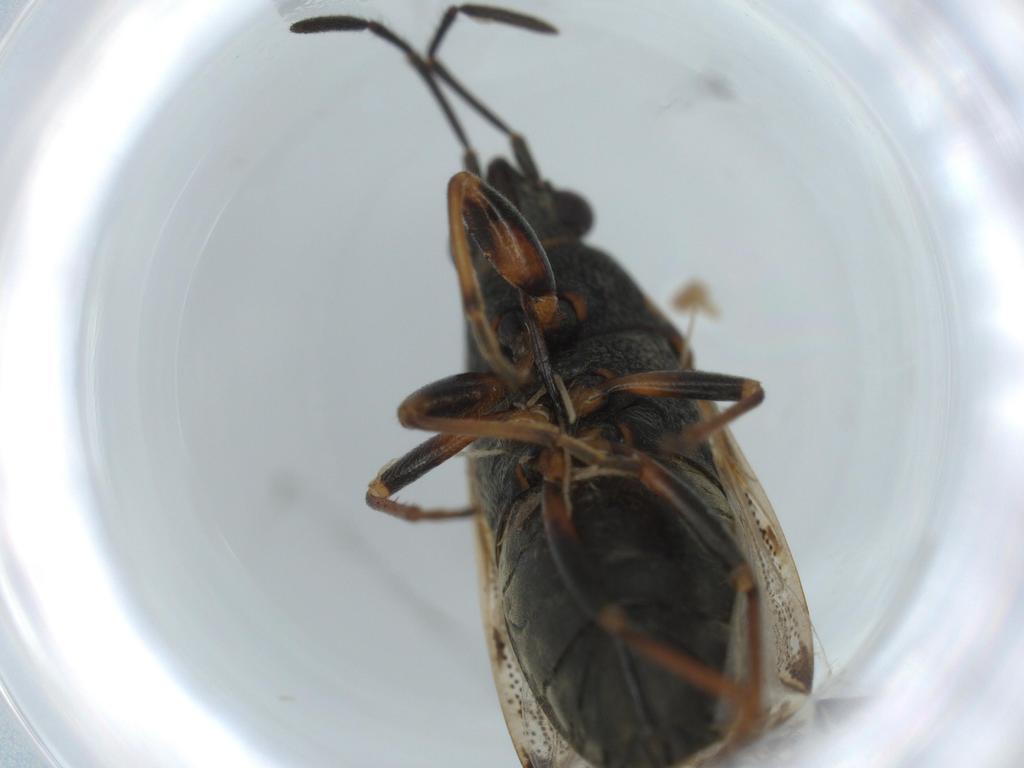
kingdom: Animalia
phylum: Arthropoda
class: Insecta
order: Hemiptera
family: Rhyparochromidae
